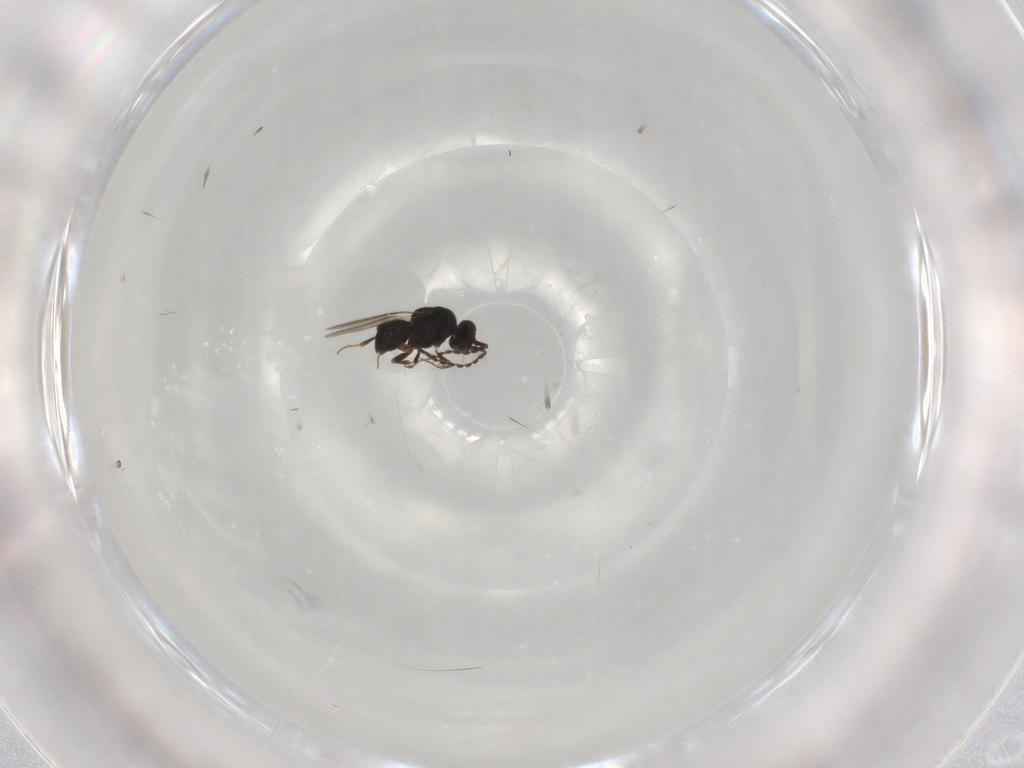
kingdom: Animalia
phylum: Arthropoda
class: Insecta
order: Hymenoptera
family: Ceraphronidae
